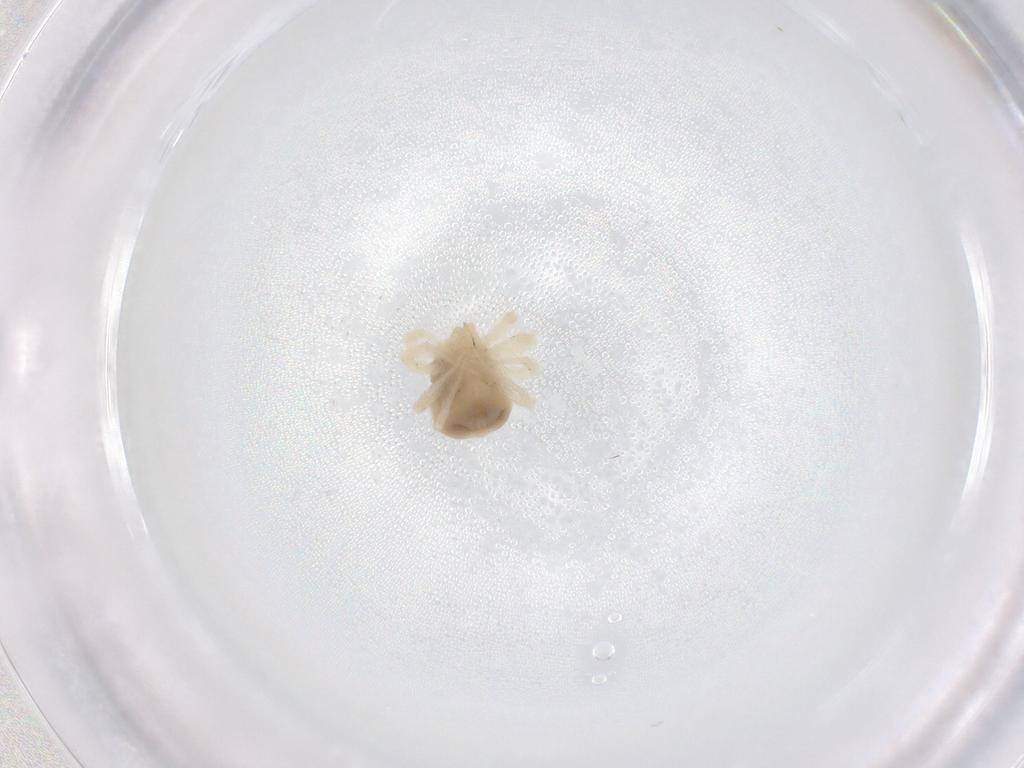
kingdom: Animalia
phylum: Arthropoda
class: Arachnida
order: Trombidiformes
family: Anystidae
